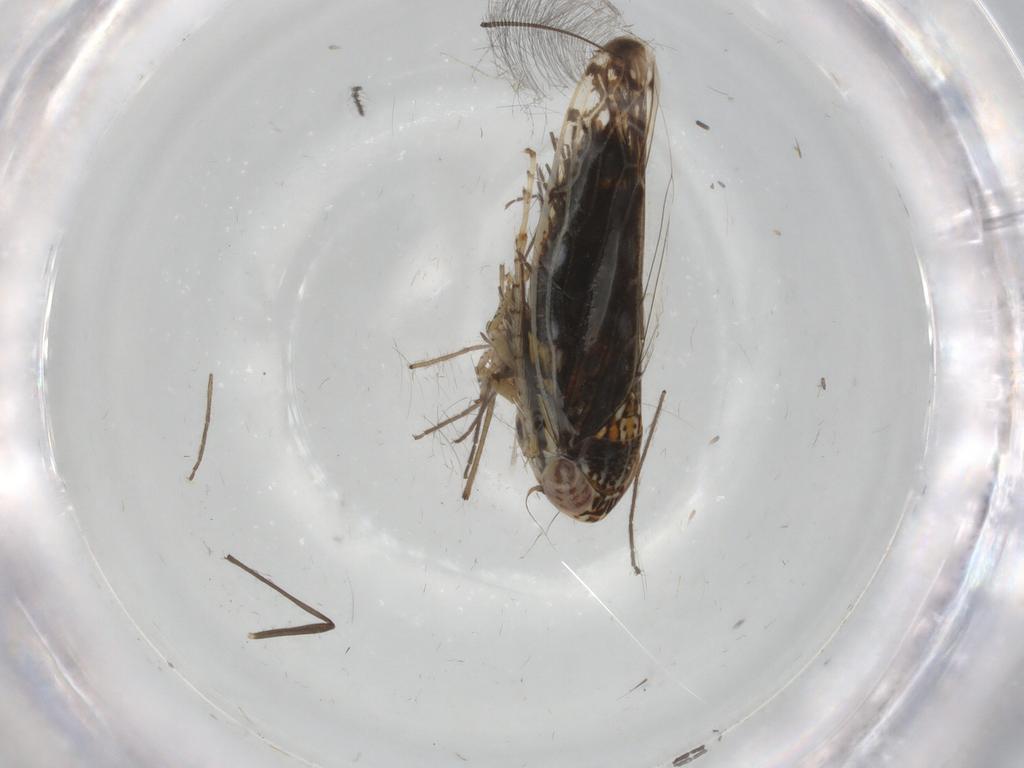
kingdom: Animalia
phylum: Arthropoda
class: Insecta
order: Hemiptera
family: Cicadellidae
